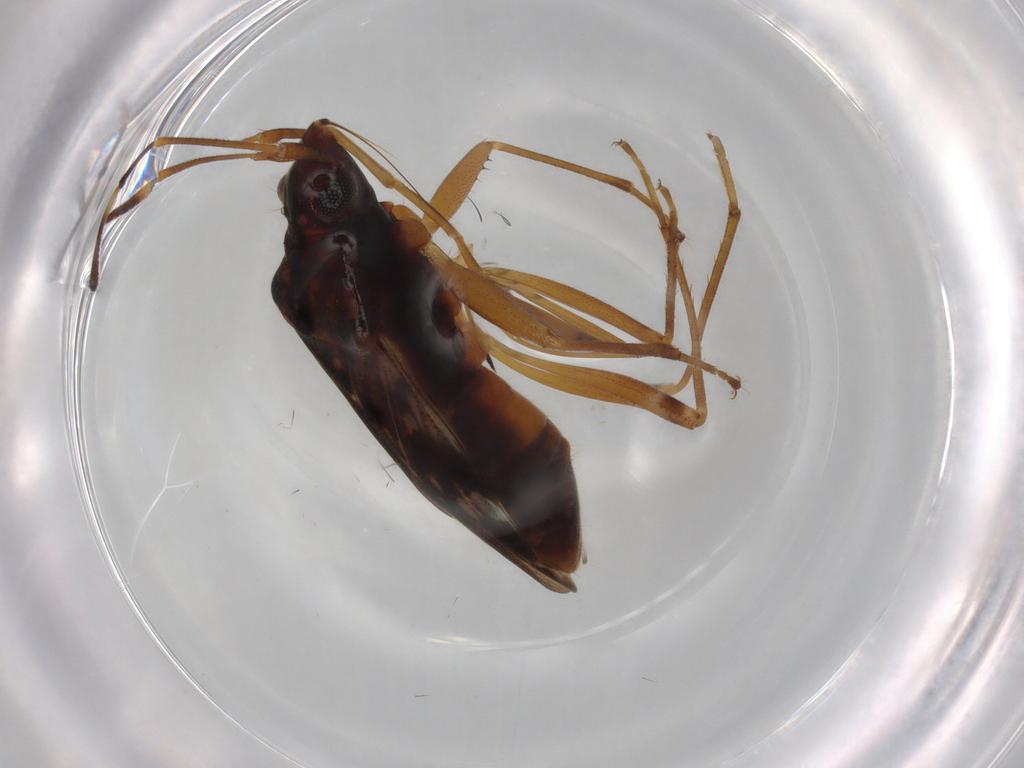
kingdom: Animalia
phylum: Arthropoda
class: Insecta
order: Hemiptera
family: Rhyparochromidae
